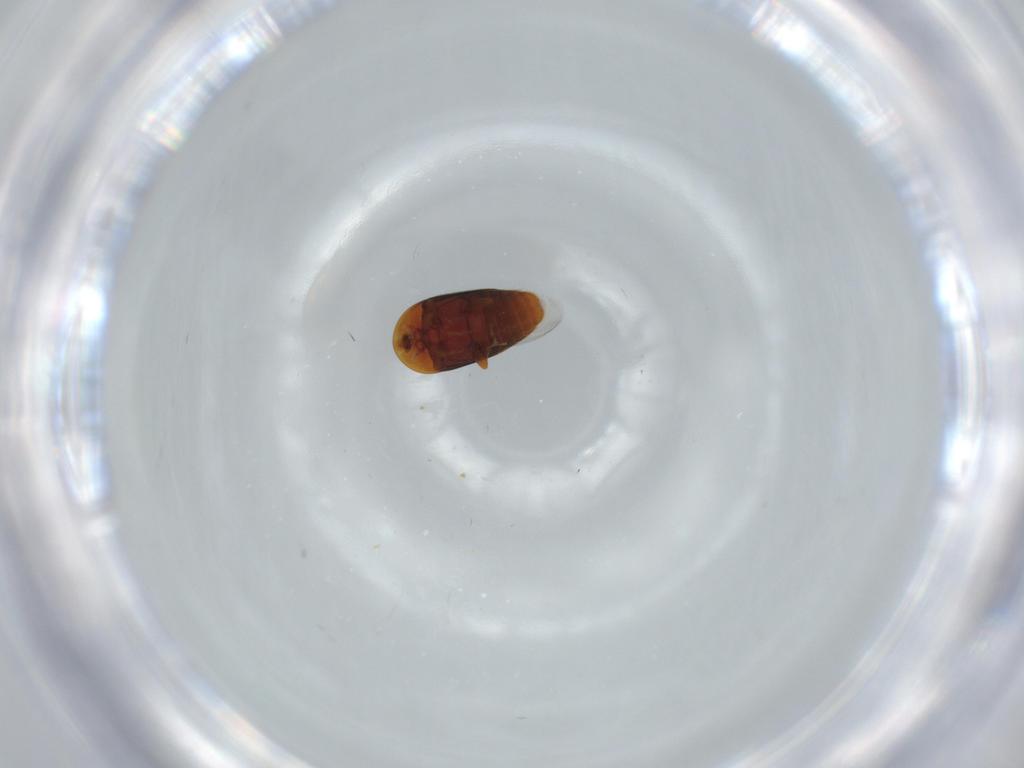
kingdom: Animalia
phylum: Arthropoda
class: Insecta
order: Coleoptera
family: Corylophidae
